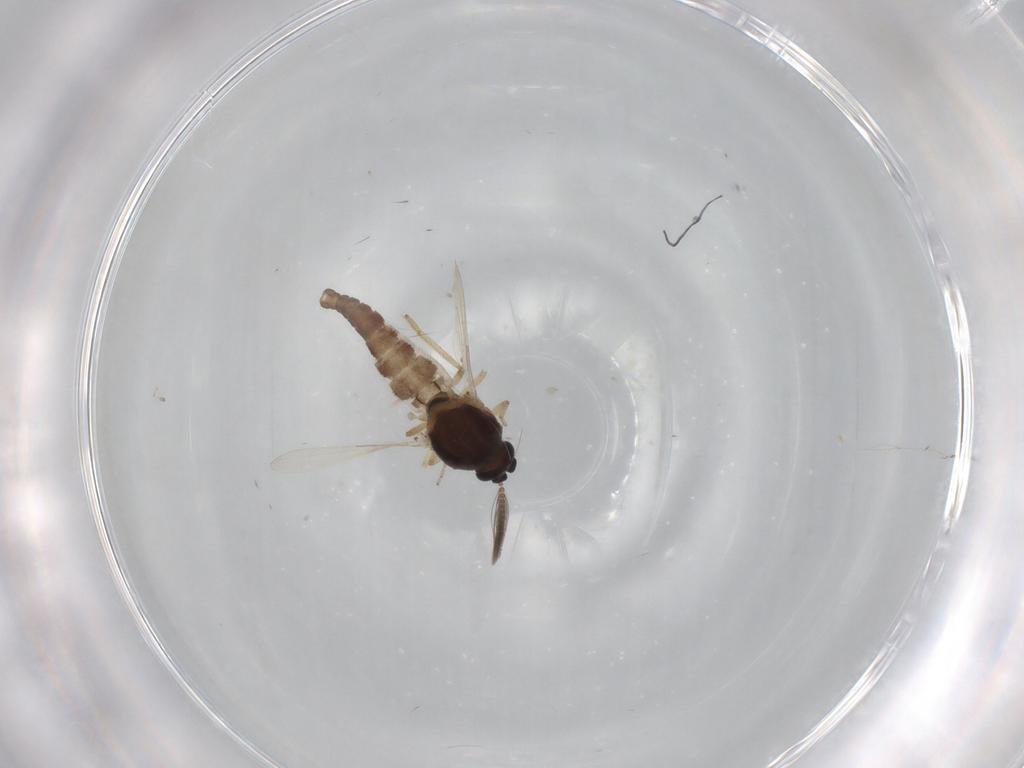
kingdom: Animalia
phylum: Arthropoda
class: Insecta
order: Diptera
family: Ceratopogonidae
